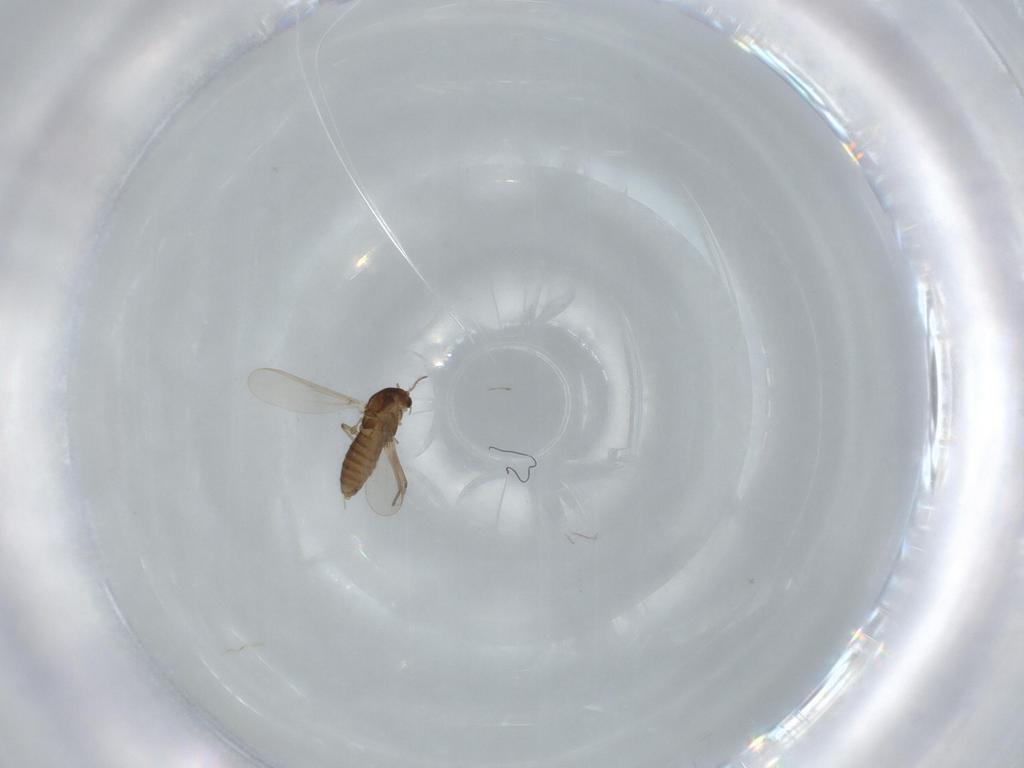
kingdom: Animalia
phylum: Arthropoda
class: Insecta
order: Diptera
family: Chironomidae
